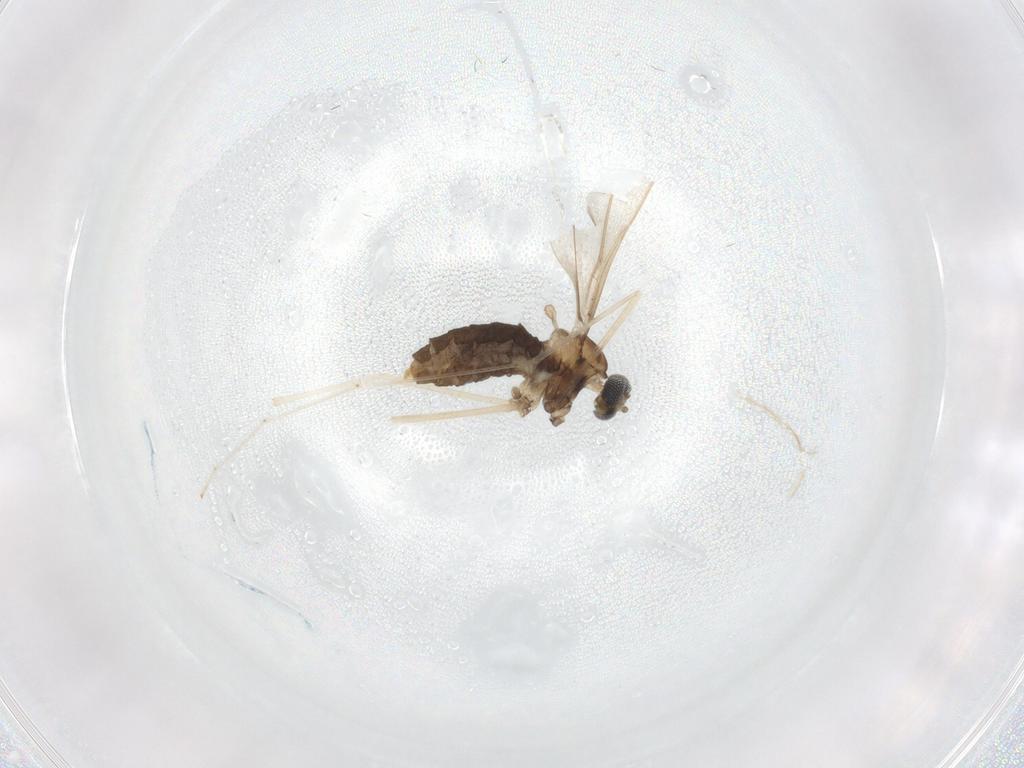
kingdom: Animalia
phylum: Arthropoda
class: Insecta
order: Diptera
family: Cecidomyiidae
